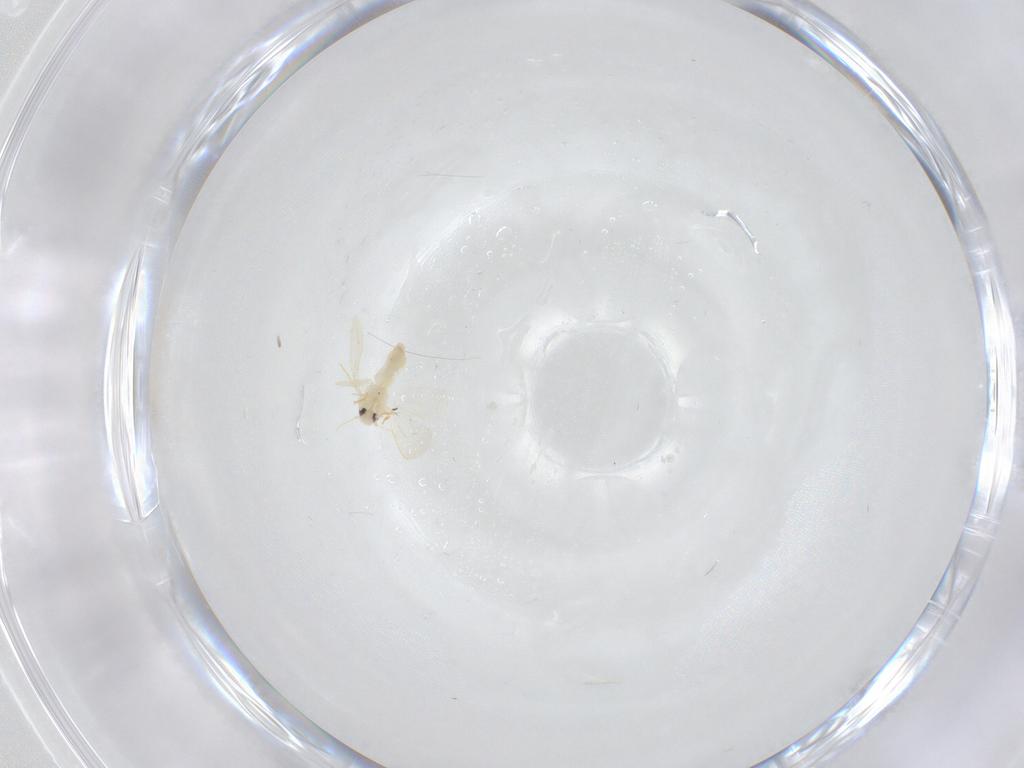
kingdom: Animalia
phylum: Arthropoda
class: Insecta
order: Hemiptera
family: Aleyrodidae
